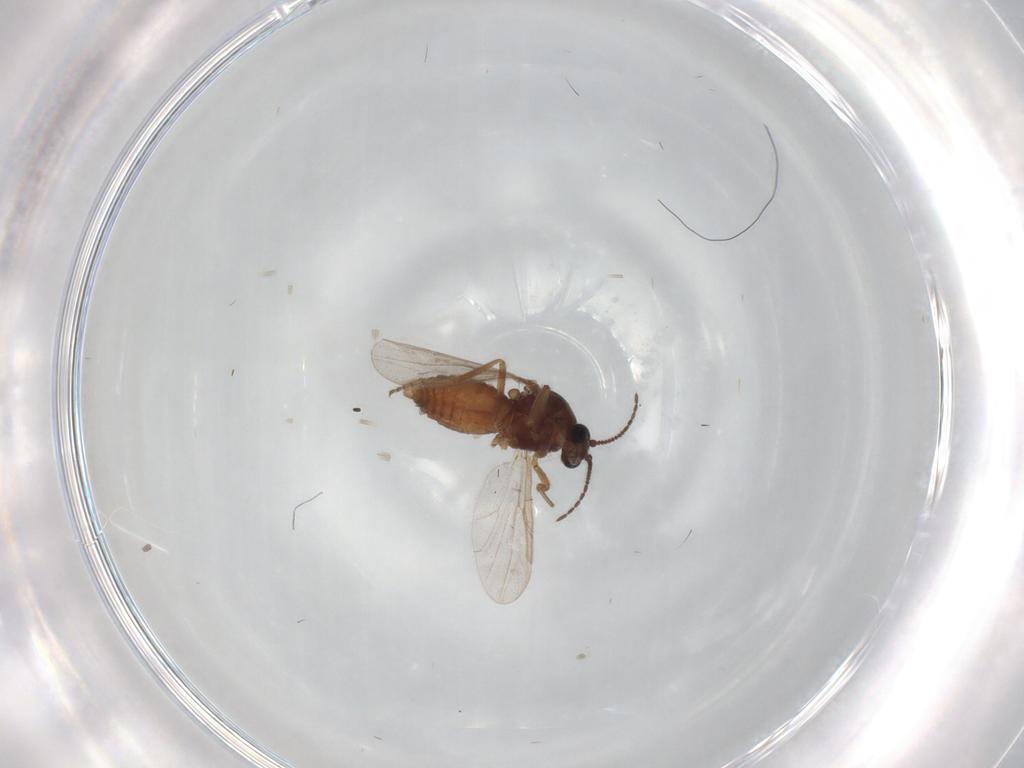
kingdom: Animalia
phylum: Arthropoda
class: Insecta
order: Diptera
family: Ceratopogonidae
